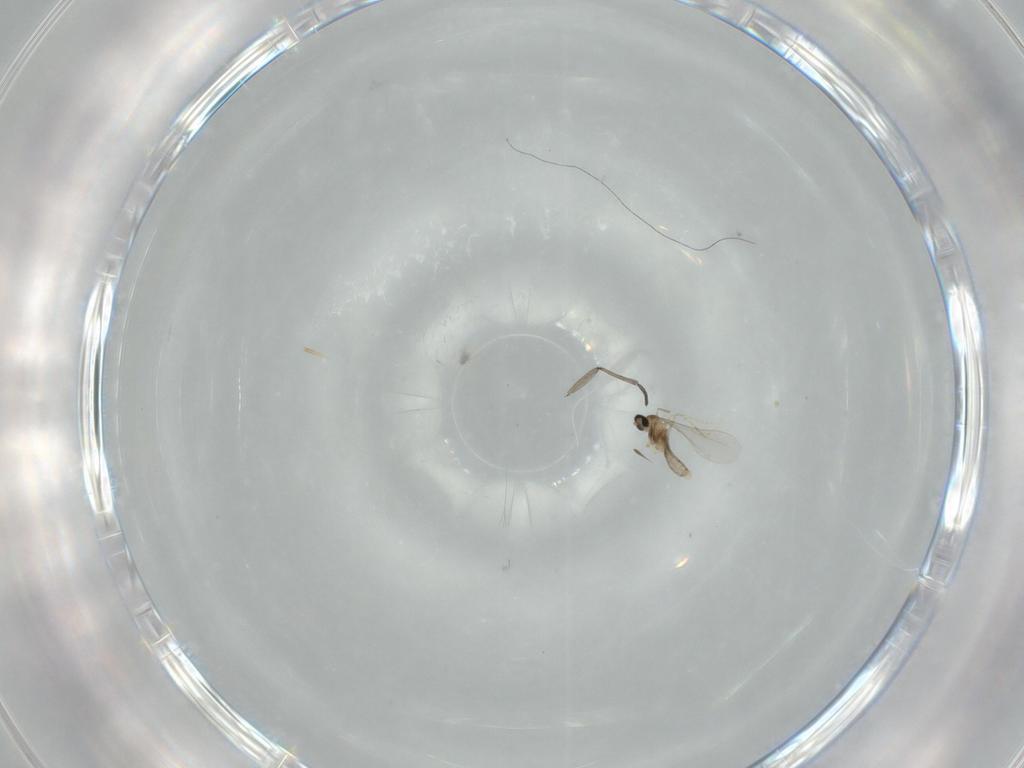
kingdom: Animalia
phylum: Arthropoda
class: Insecta
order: Diptera
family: Sciaridae
